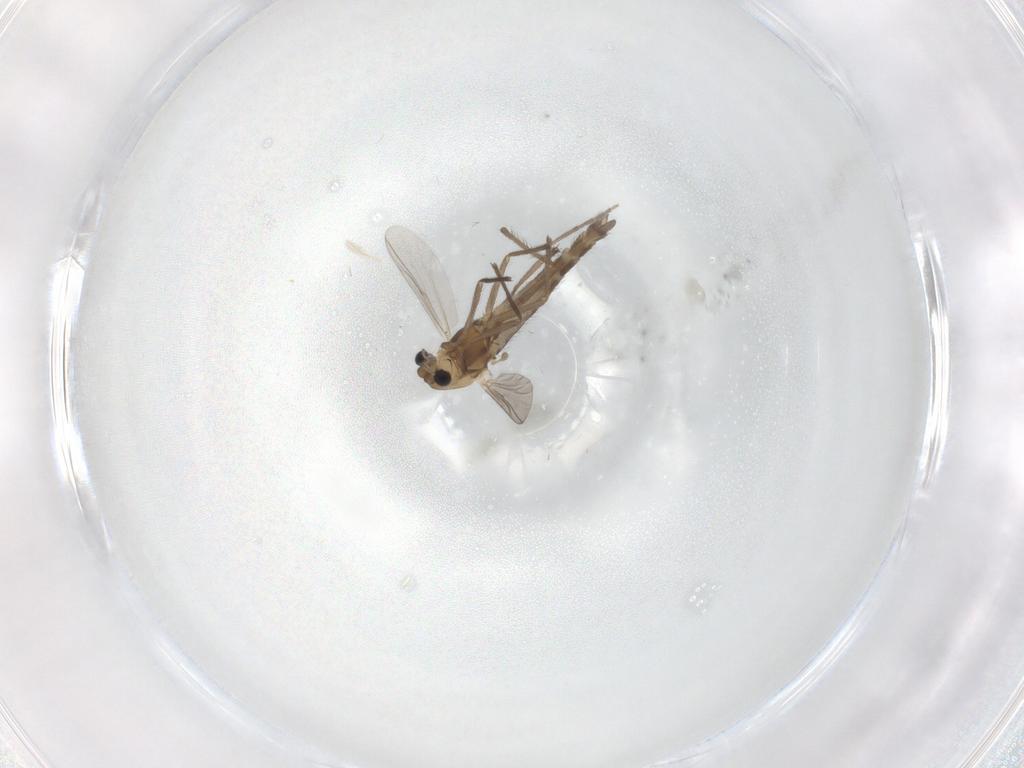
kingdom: Animalia
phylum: Arthropoda
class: Insecta
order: Diptera
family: Chironomidae
